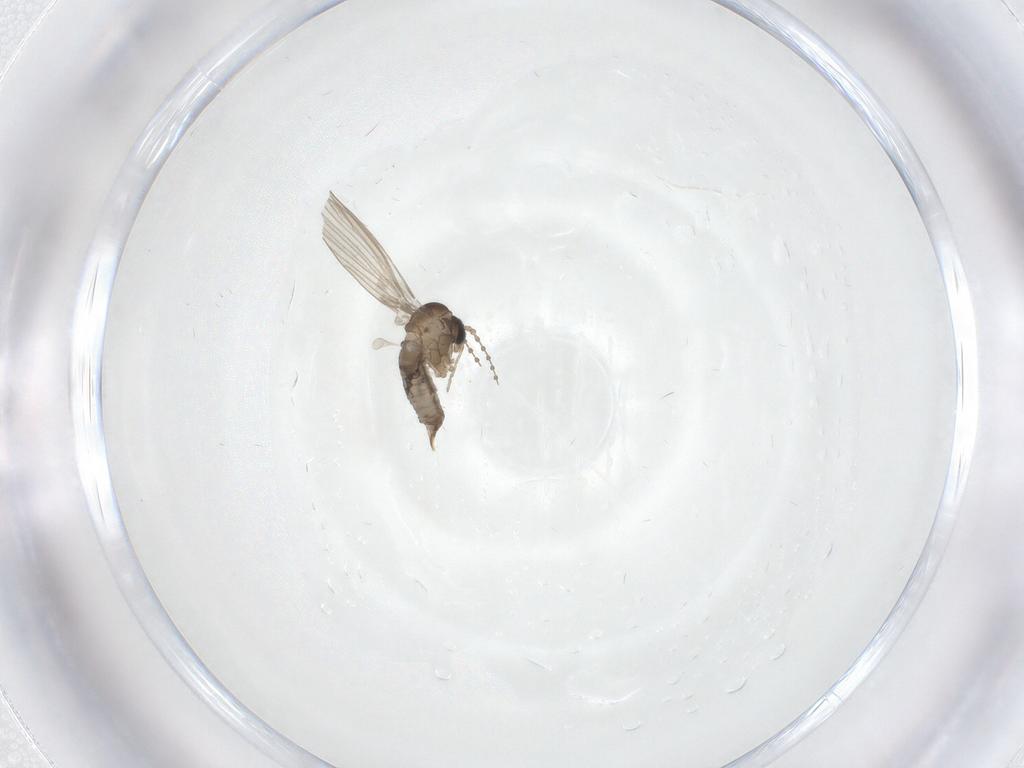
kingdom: Animalia
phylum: Arthropoda
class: Insecta
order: Diptera
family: Psychodidae
